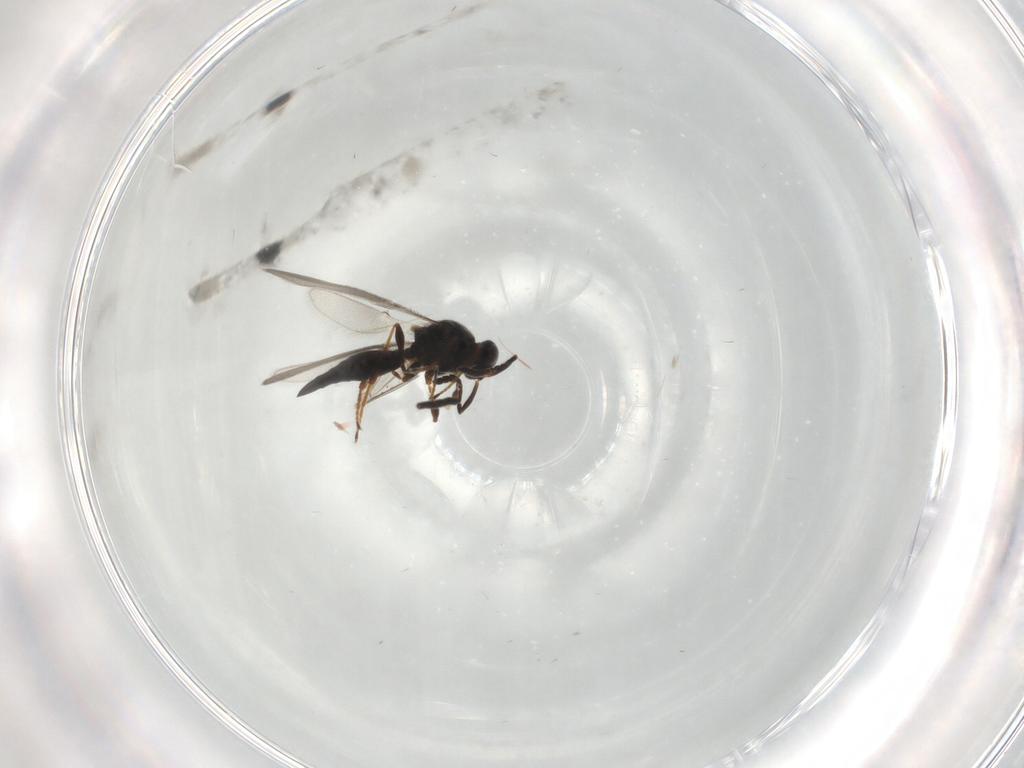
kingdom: Animalia
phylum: Arthropoda
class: Insecta
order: Hymenoptera
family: Platygastridae
